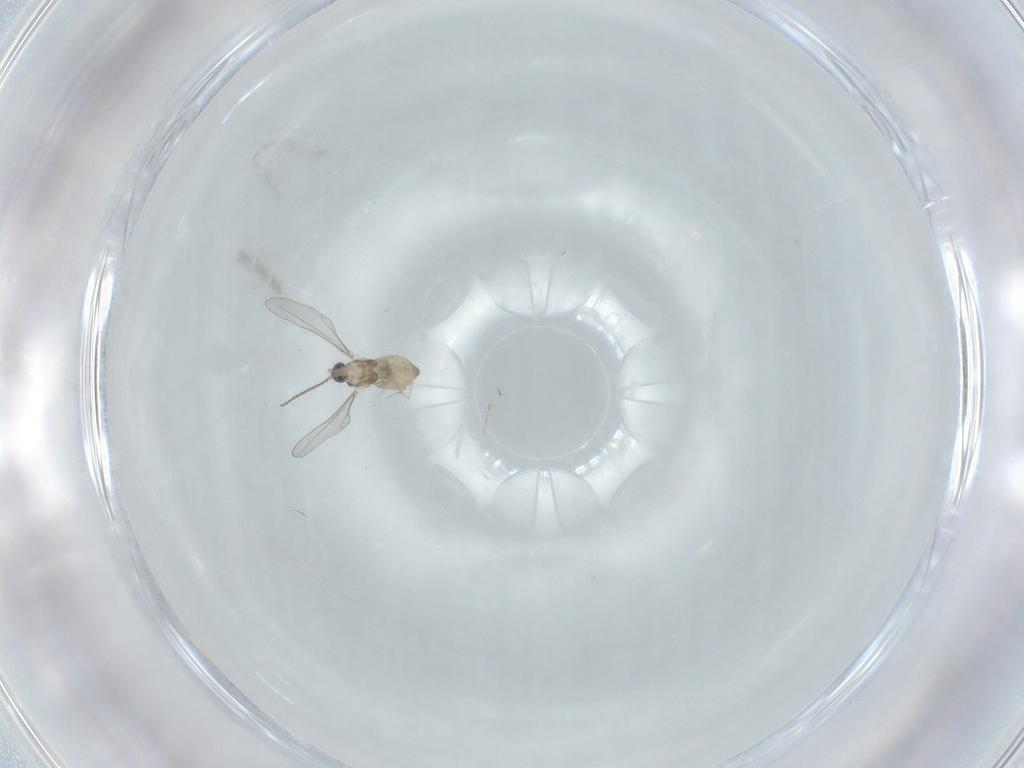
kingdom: Animalia
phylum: Arthropoda
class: Insecta
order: Diptera
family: Cecidomyiidae
